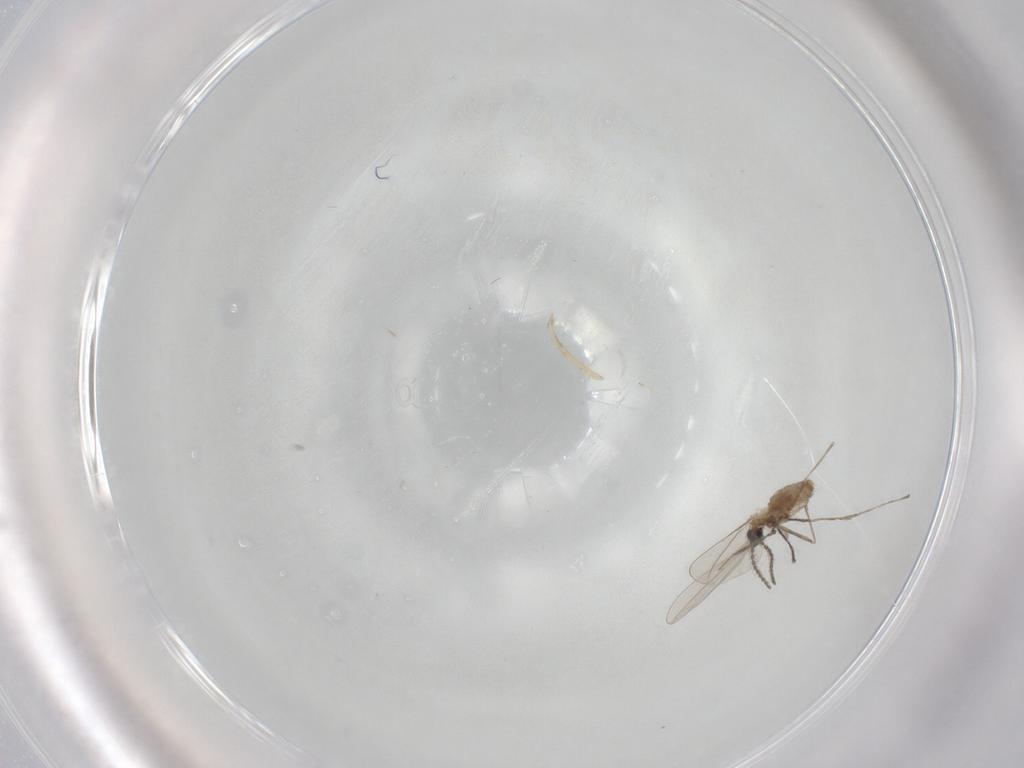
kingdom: Animalia
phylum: Arthropoda
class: Insecta
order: Diptera
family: Cecidomyiidae
